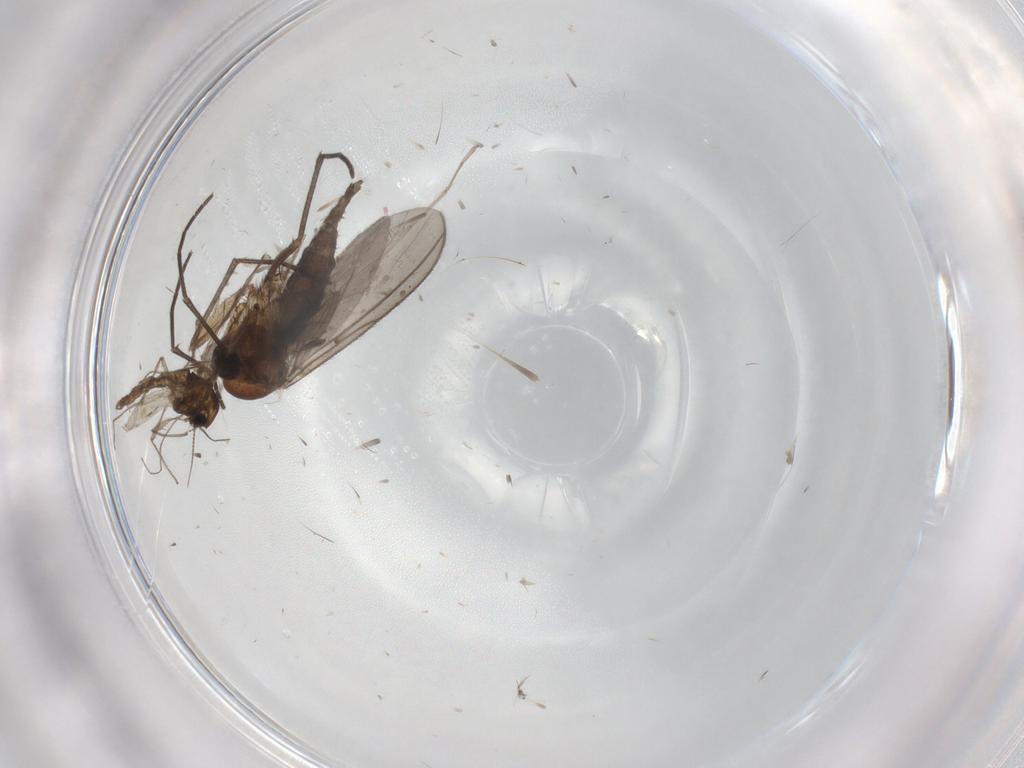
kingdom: Animalia
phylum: Arthropoda
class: Insecta
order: Diptera
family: Sciaridae
